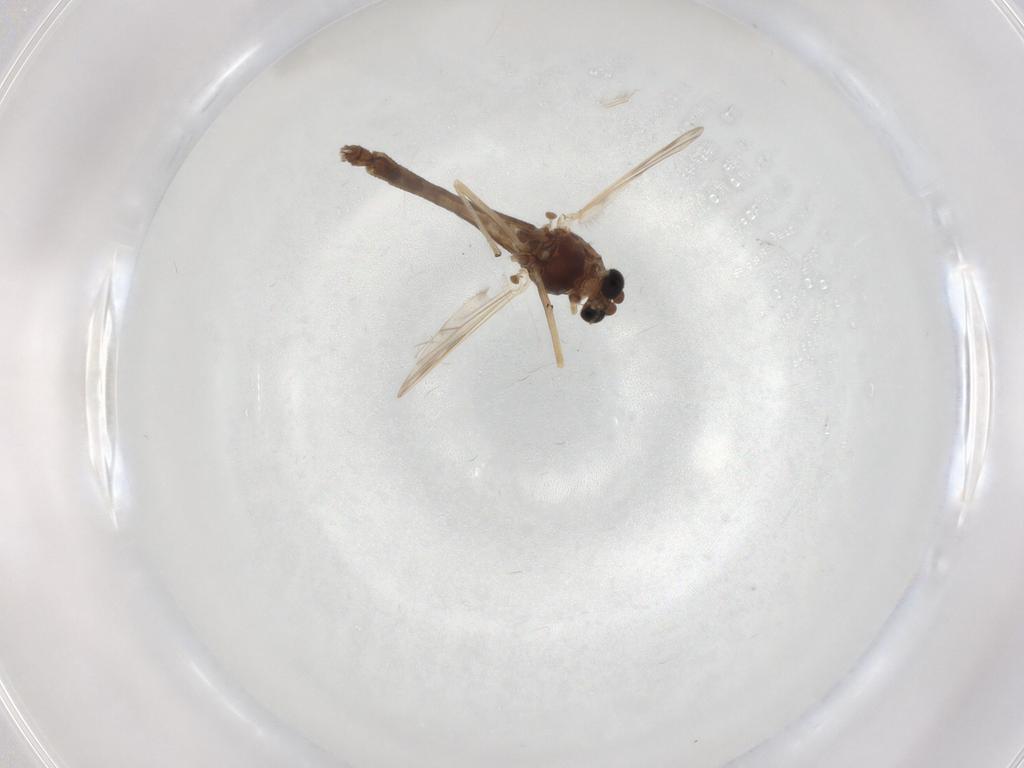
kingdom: Animalia
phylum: Arthropoda
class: Insecta
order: Diptera
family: Chironomidae
